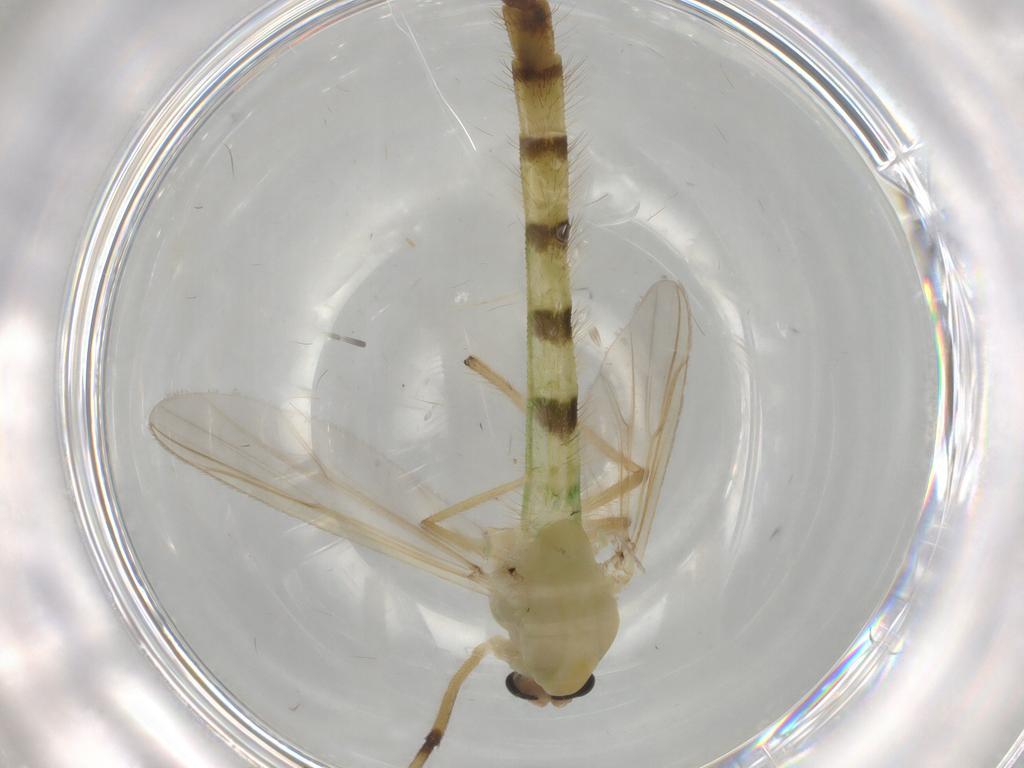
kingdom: Animalia
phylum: Arthropoda
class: Insecta
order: Diptera
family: Chironomidae
